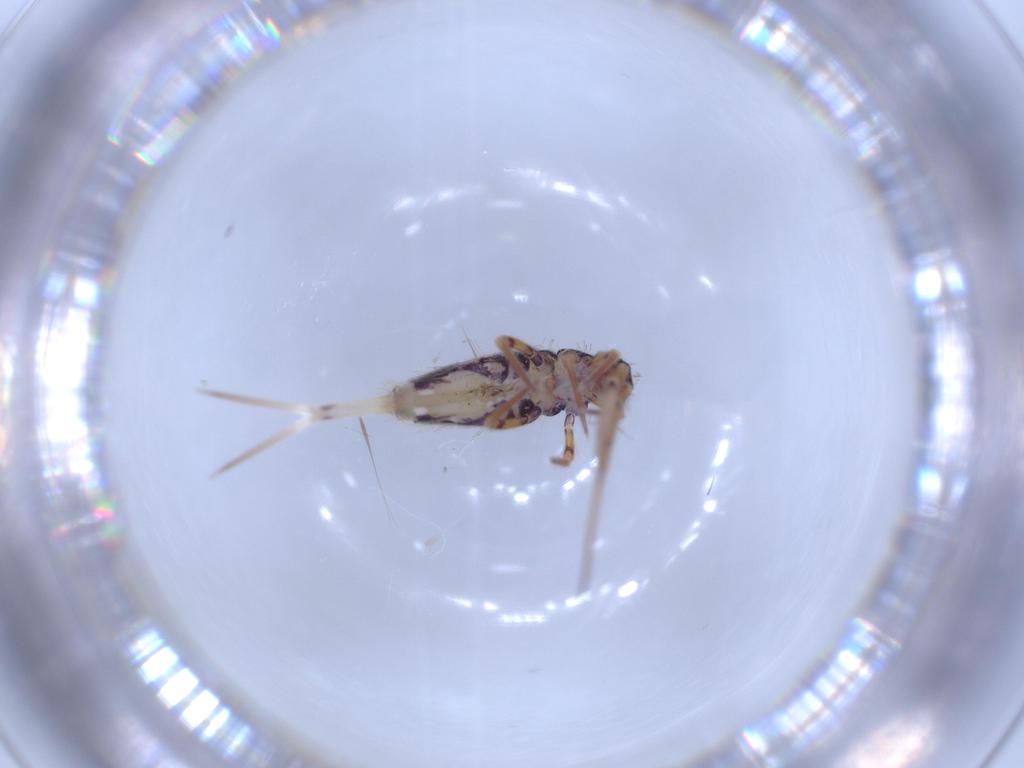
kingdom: Animalia
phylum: Arthropoda
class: Collembola
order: Entomobryomorpha
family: Entomobryidae
